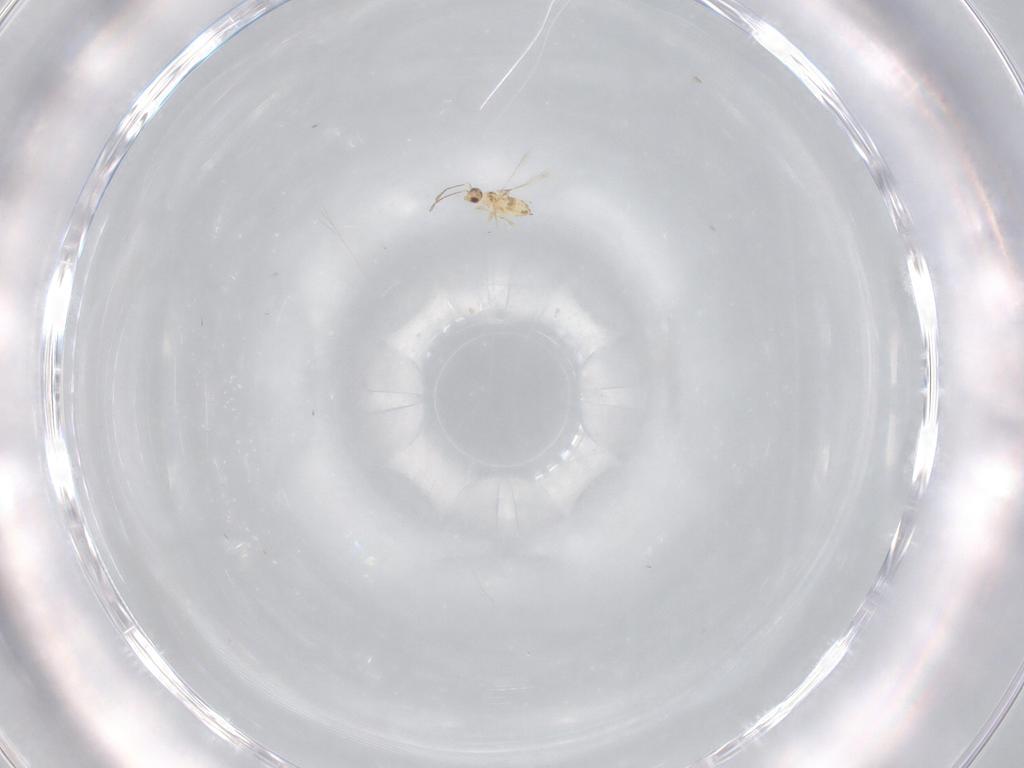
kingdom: Animalia
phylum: Arthropoda
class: Insecta
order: Hymenoptera
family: Mymaridae
